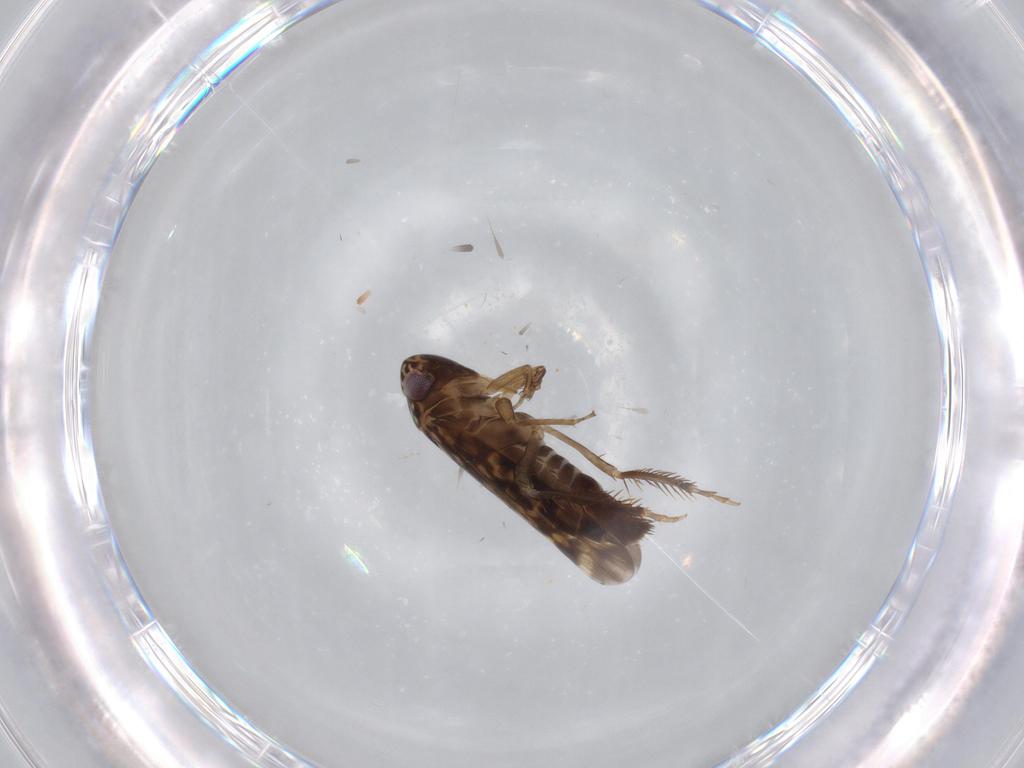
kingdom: Animalia
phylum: Arthropoda
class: Insecta
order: Hemiptera
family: Cicadellidae
